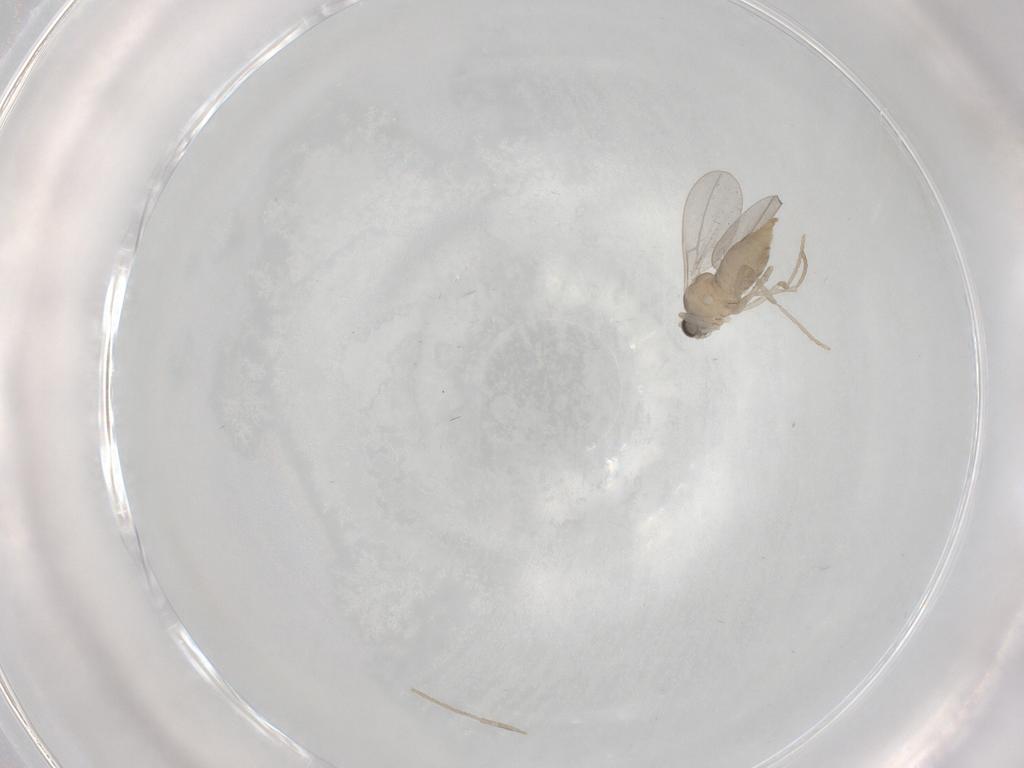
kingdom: Animalia
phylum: Arthropoda
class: Insecta
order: Diptera
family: Cecidomyiidae
